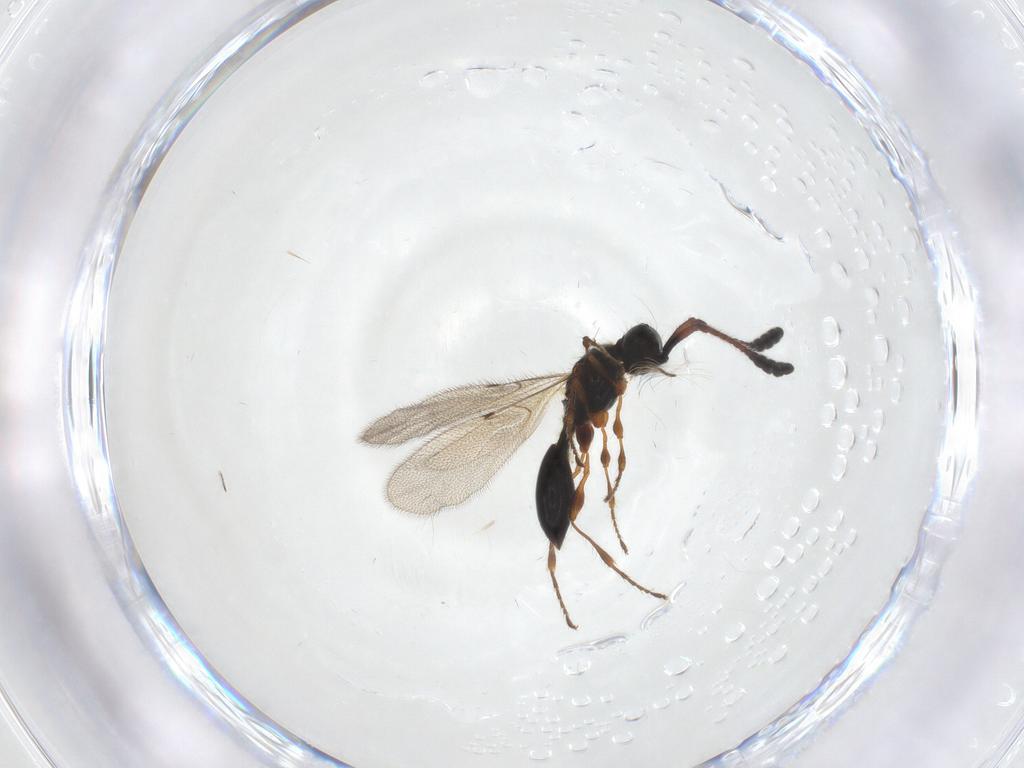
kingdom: Animalia
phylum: Arthropoda
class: Insecta
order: Hymenoptera
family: Diapriidae
